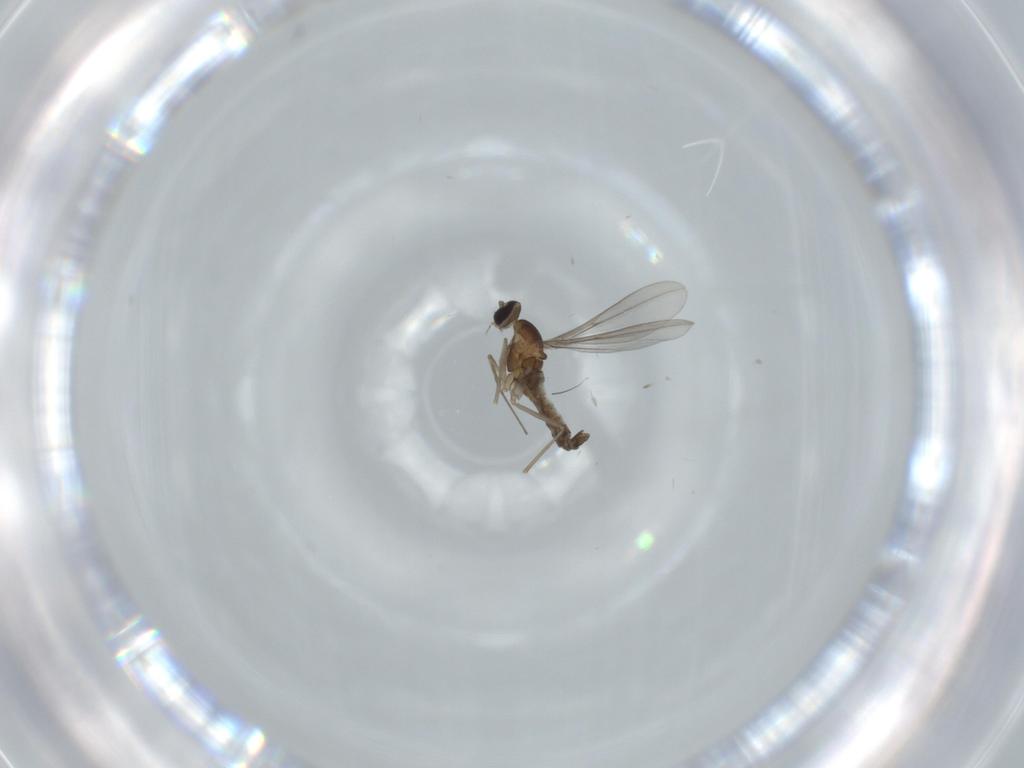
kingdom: Animalia
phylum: Arthropoda
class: Insecta
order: Diptera
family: Cecidomyiidae
